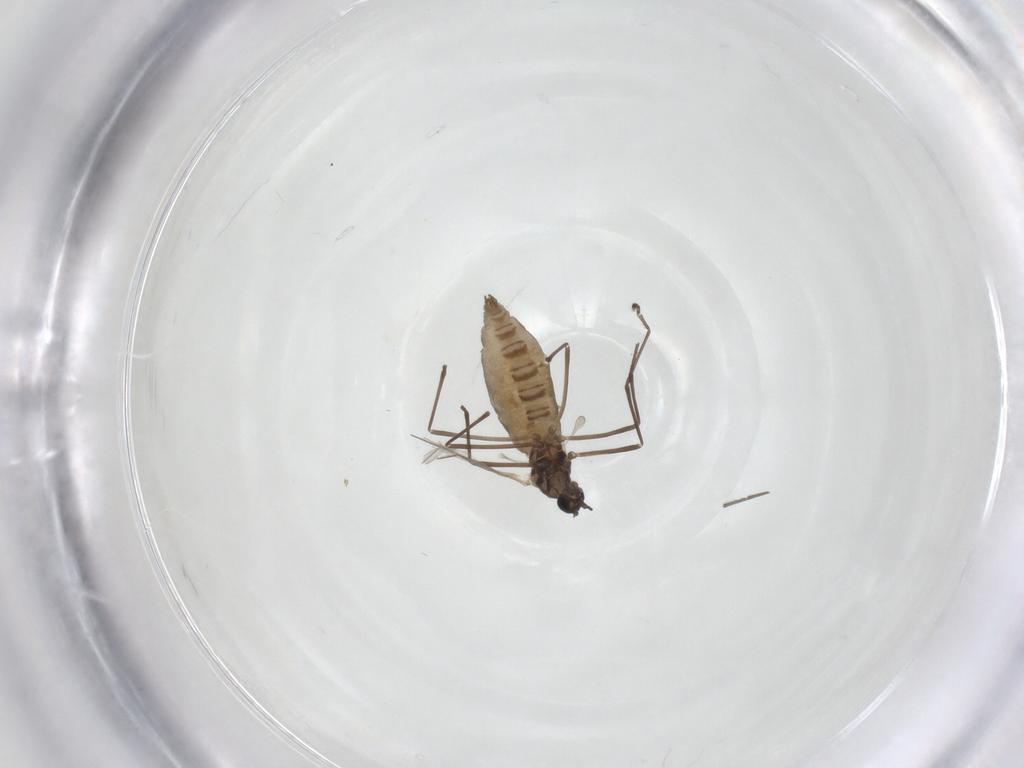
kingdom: Animalia
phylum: Arthropoda
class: Insecta
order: Diptera
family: Cecidomyiidae
